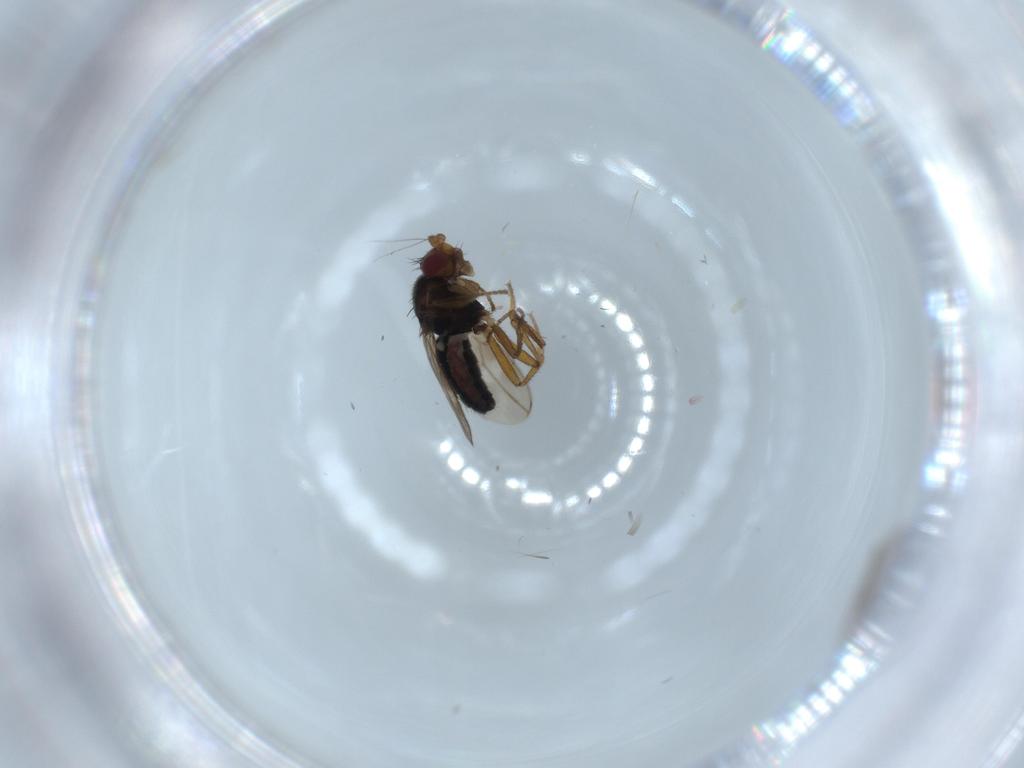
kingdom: Animalia
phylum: Arthropoda
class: Insecta
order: Diptera
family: Sphaeroceridae
